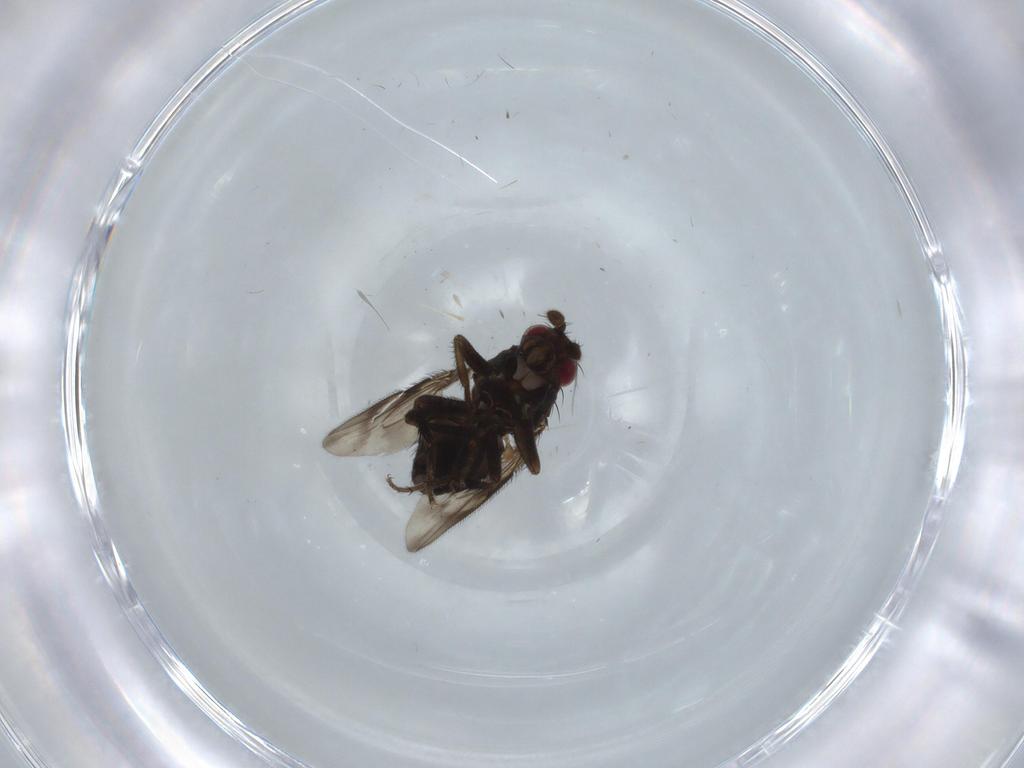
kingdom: Animalia
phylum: Arthropoda
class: Insecta
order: Diptera
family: Sphaeroceridae
